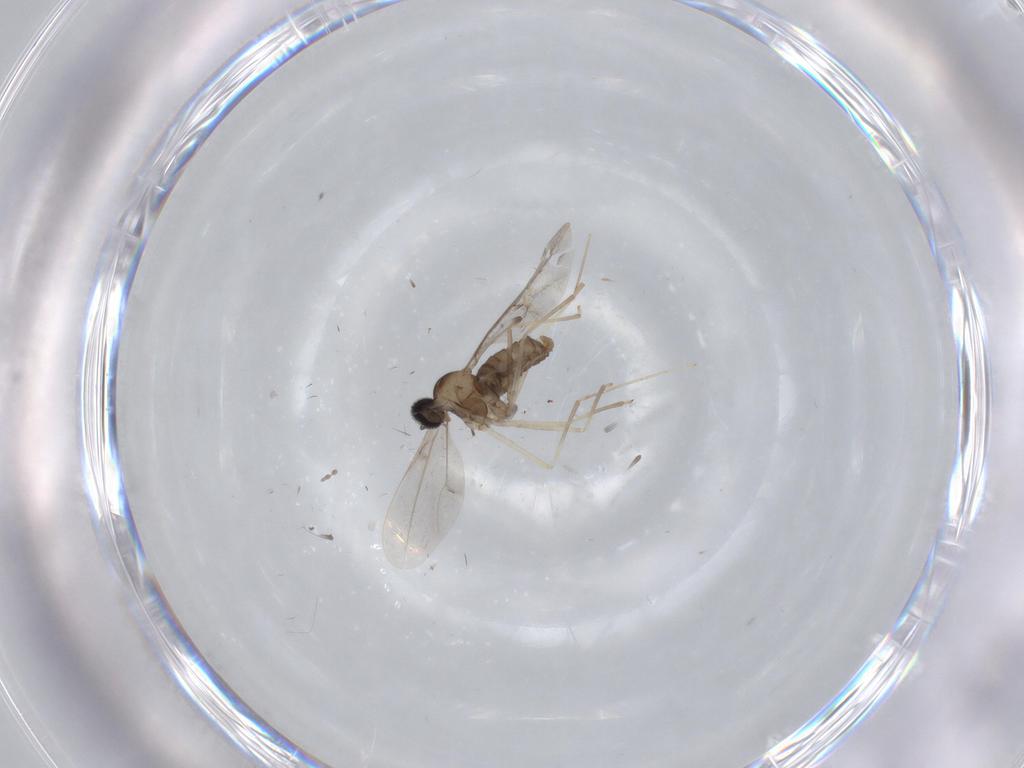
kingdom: Animalia
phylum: Arthropoda
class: Insecta
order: Diptera
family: Cecidomyiidae
